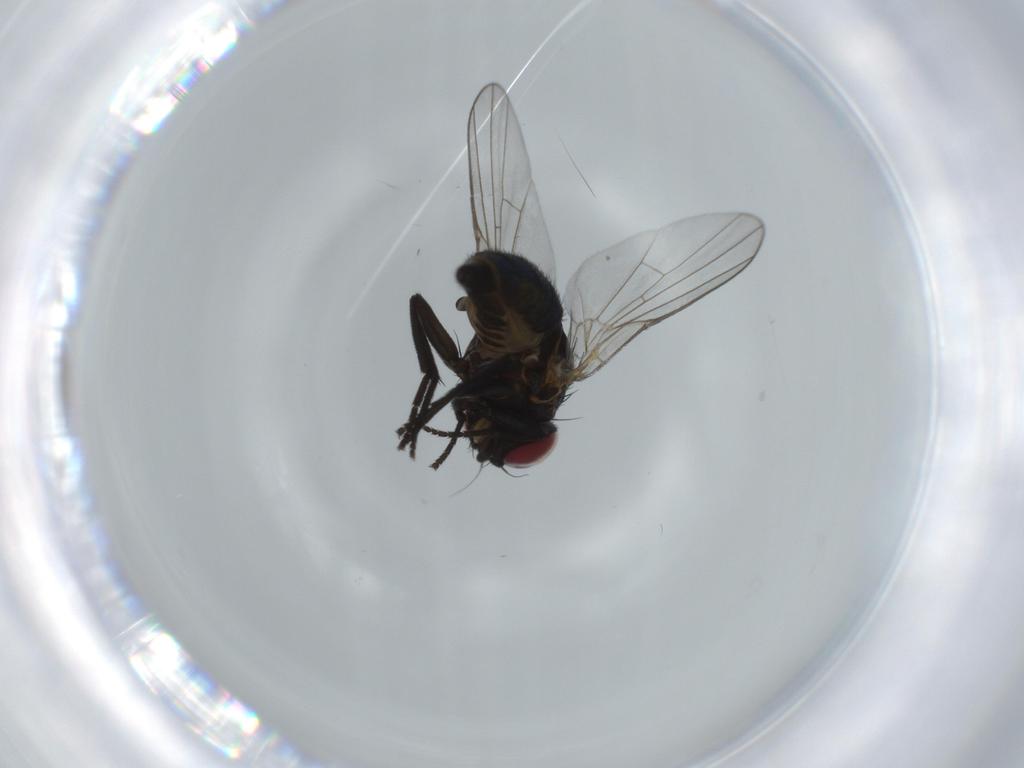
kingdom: Animalia
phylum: Arthropoda
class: Insecta
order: Diptera
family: Agromyzidae
